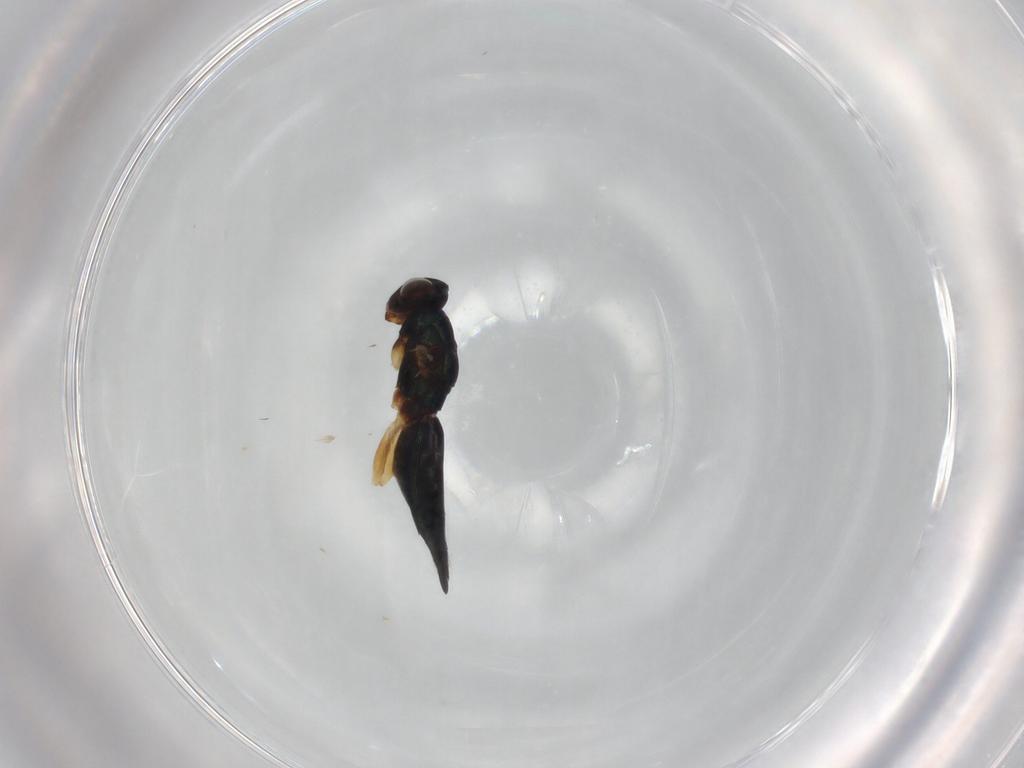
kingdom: Animalia
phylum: Arthropoda
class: Insecta
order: Hymenoptera
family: Eulophidae
